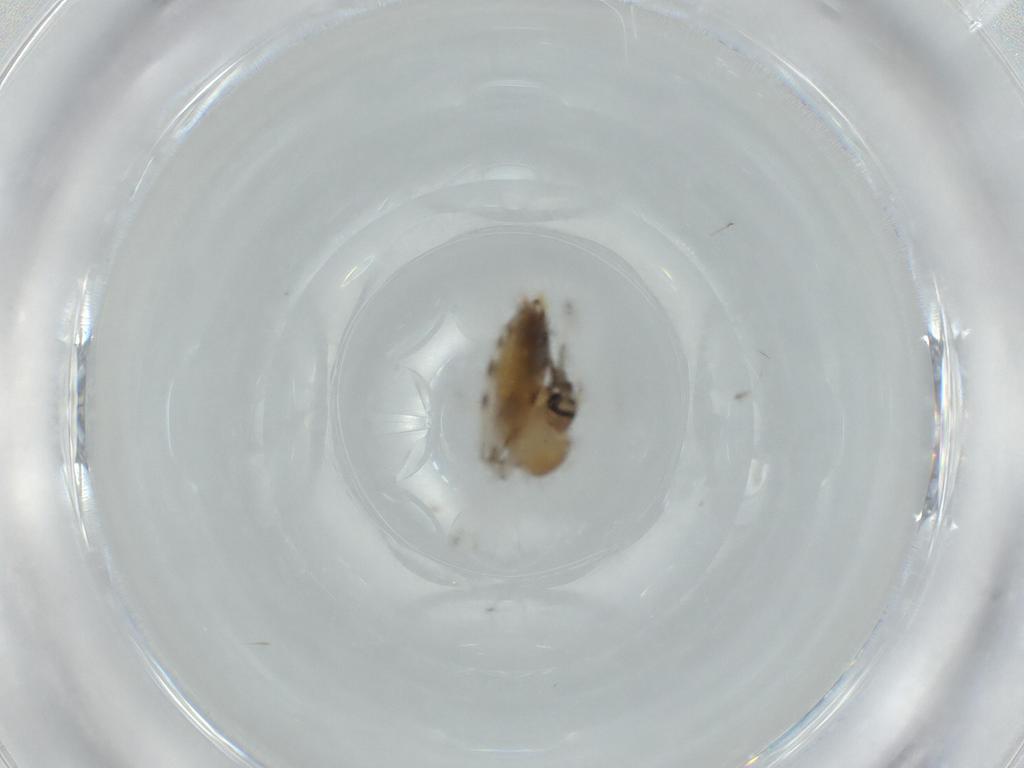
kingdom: Animalia
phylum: Arthropoda
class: Insecta
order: Diptera
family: Psychodidae
